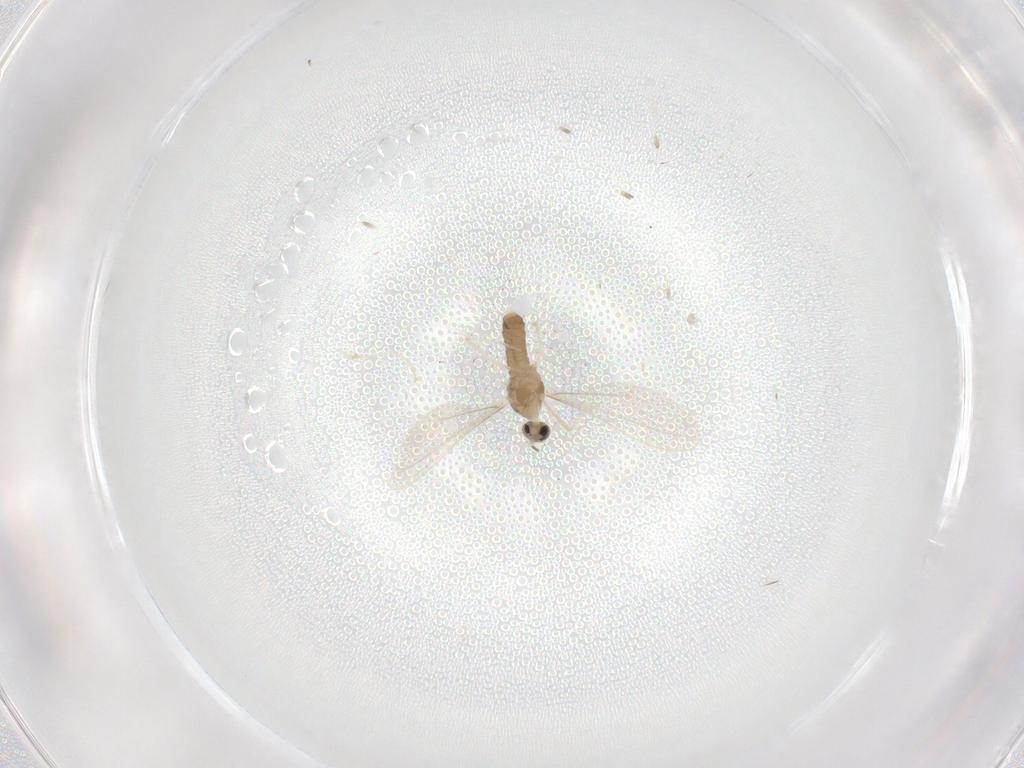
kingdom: Animalia
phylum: Arthropoda
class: Insecta
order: Diptera
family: Cecidomyiidae
